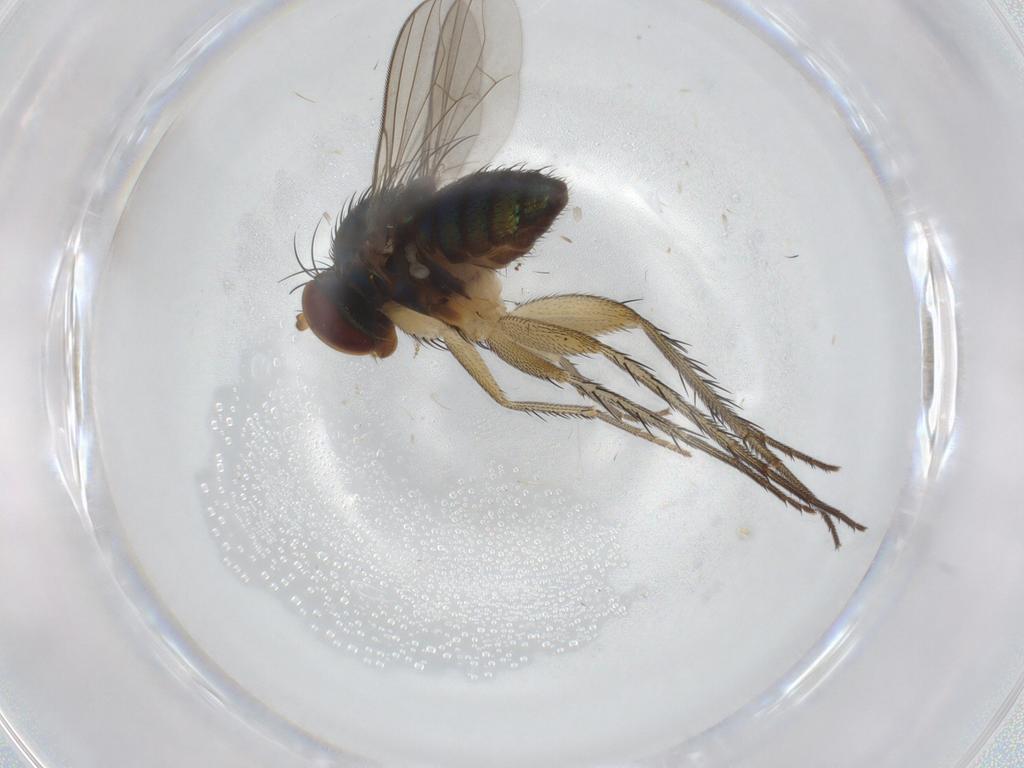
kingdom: Animalia
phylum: Arthropoda
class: Insecta
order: Diptera
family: Dolichopodidae
